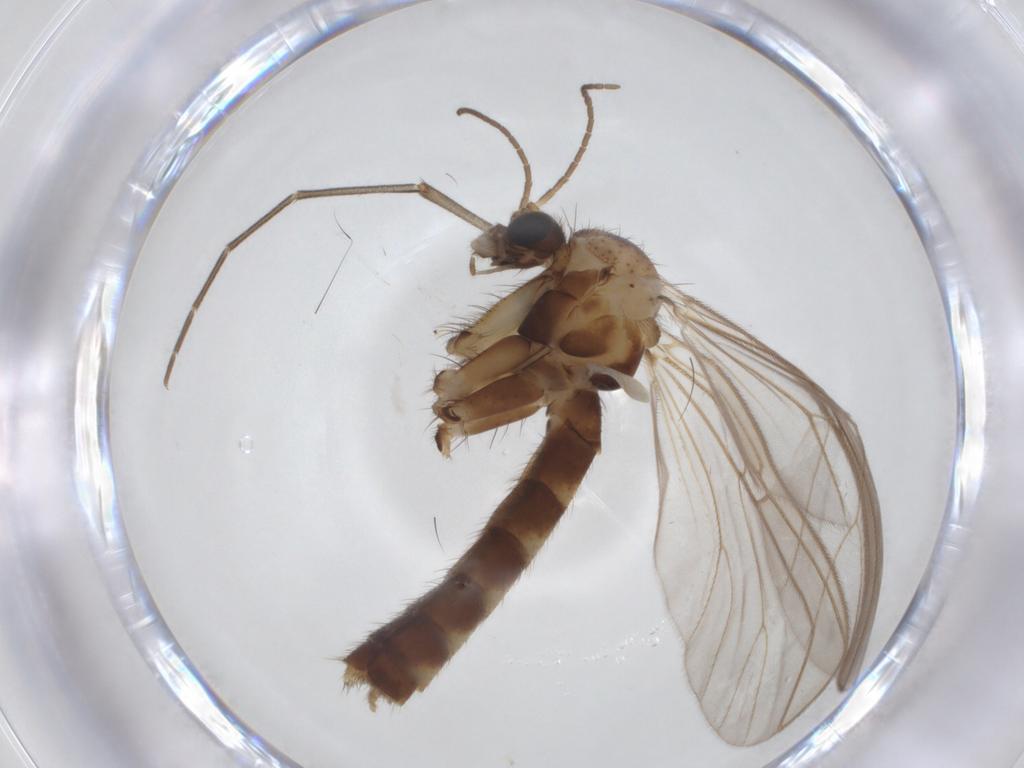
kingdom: Animalia
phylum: Arthropoda
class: Insecta
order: Diptera
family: Mycetophilidae
